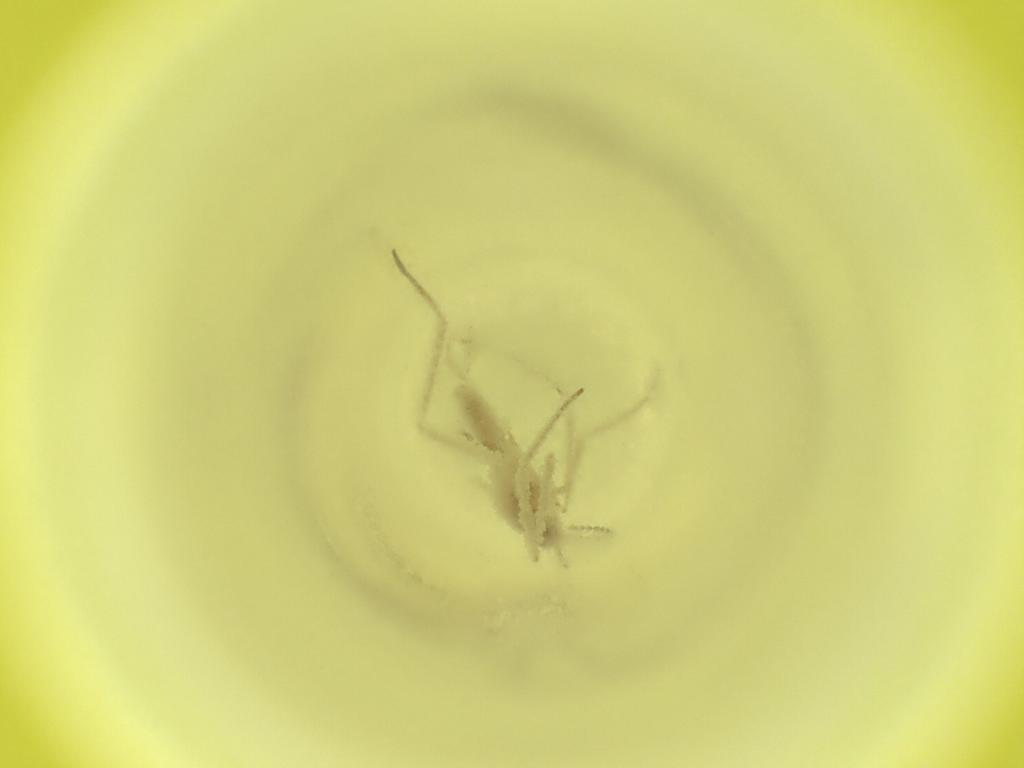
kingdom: Animalia
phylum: Arthropoda
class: Insecta
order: Diptera
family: Cecidomyiidae
